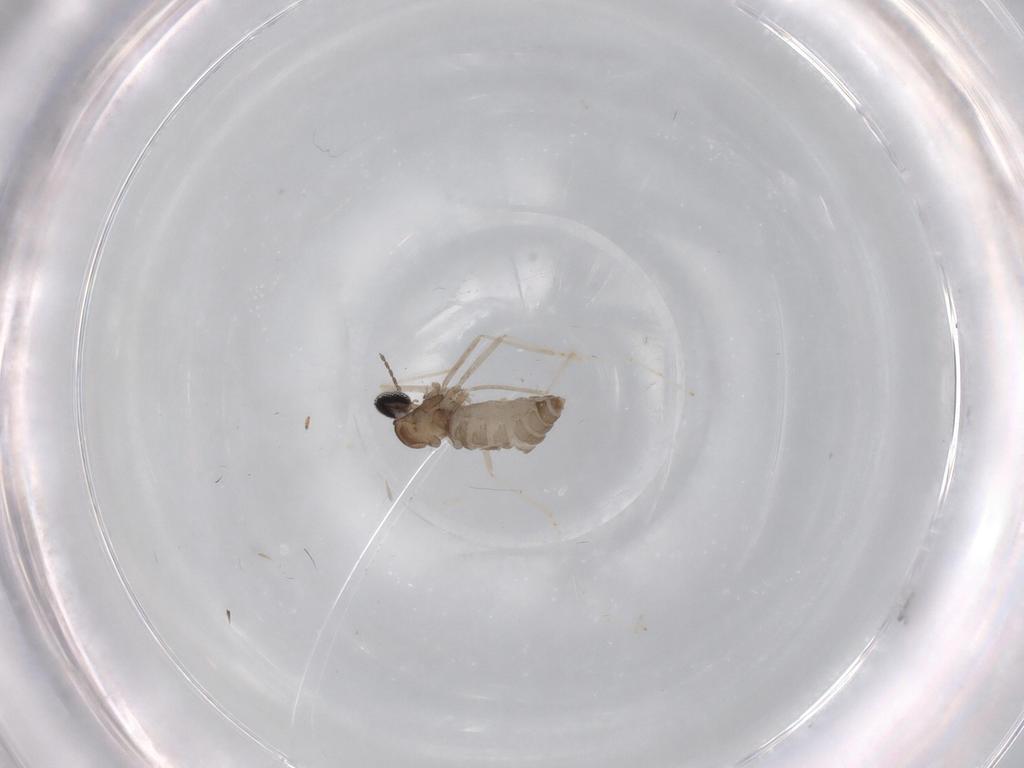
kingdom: Animalia
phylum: Arthropoda
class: Insecta
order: Diptera
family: Cecidomyiidae
